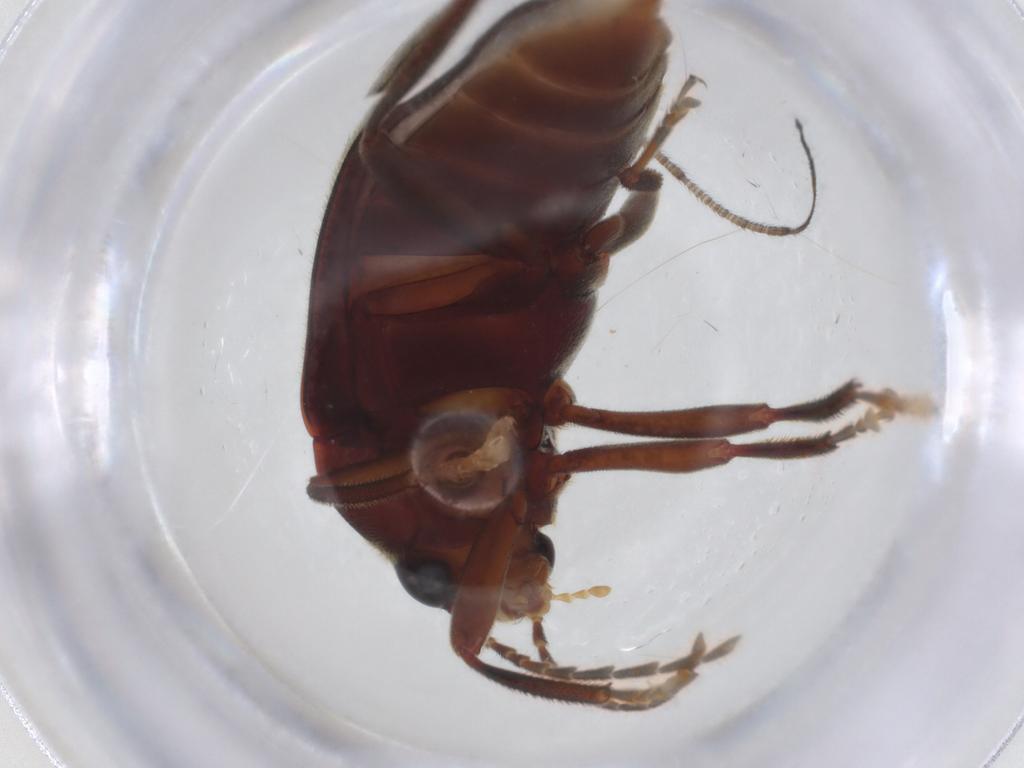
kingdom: Animalia
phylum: Arthropoda
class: Insecta
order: Coleoptera
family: Ptilodactylidae
